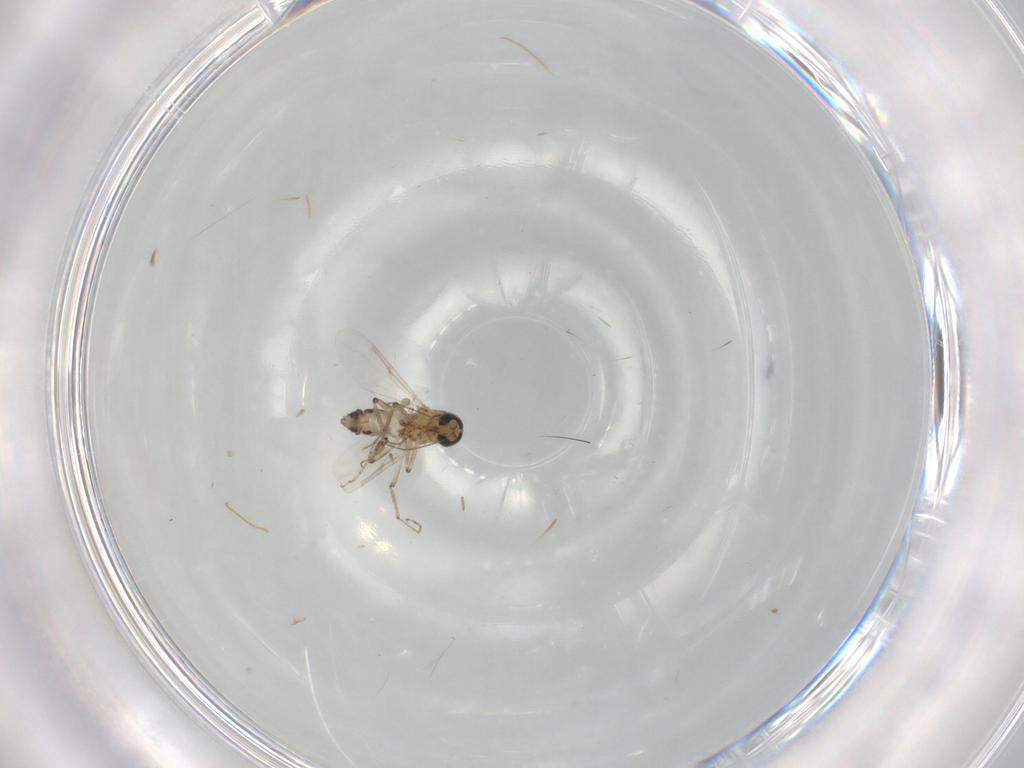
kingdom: Animalia
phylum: Arthropoda
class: Insecta
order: Diptera
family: Ceratopogonidae
